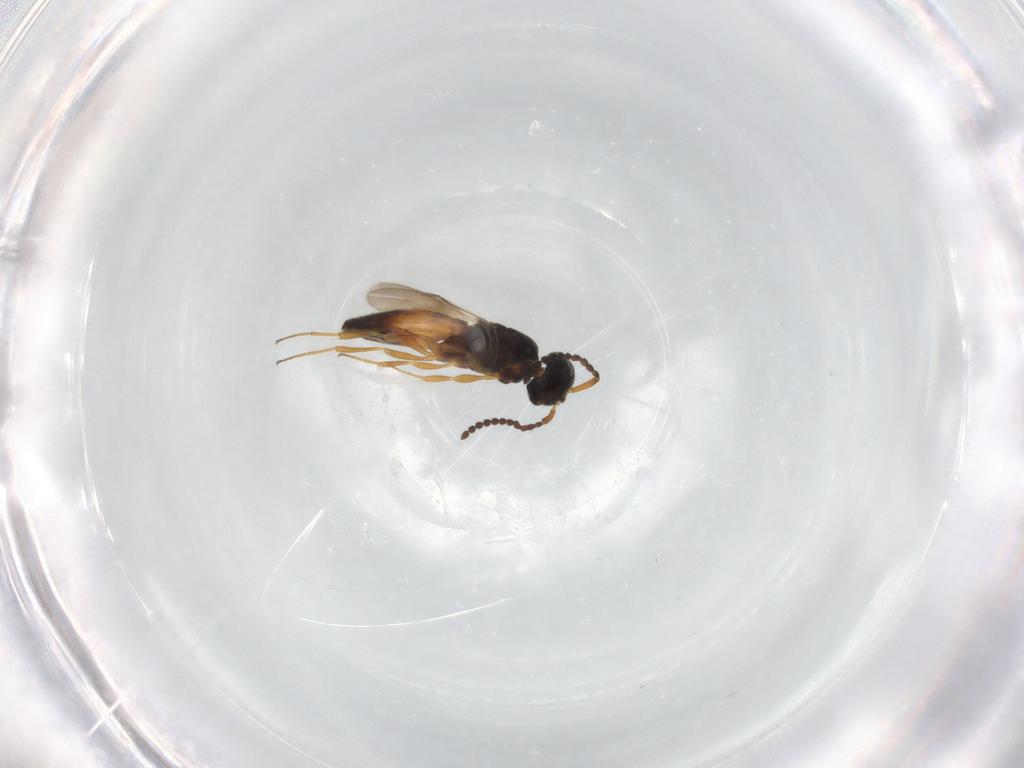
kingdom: Animalia
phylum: Arthropoda
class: Insecta
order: Hymenoptera
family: Scelionidae
